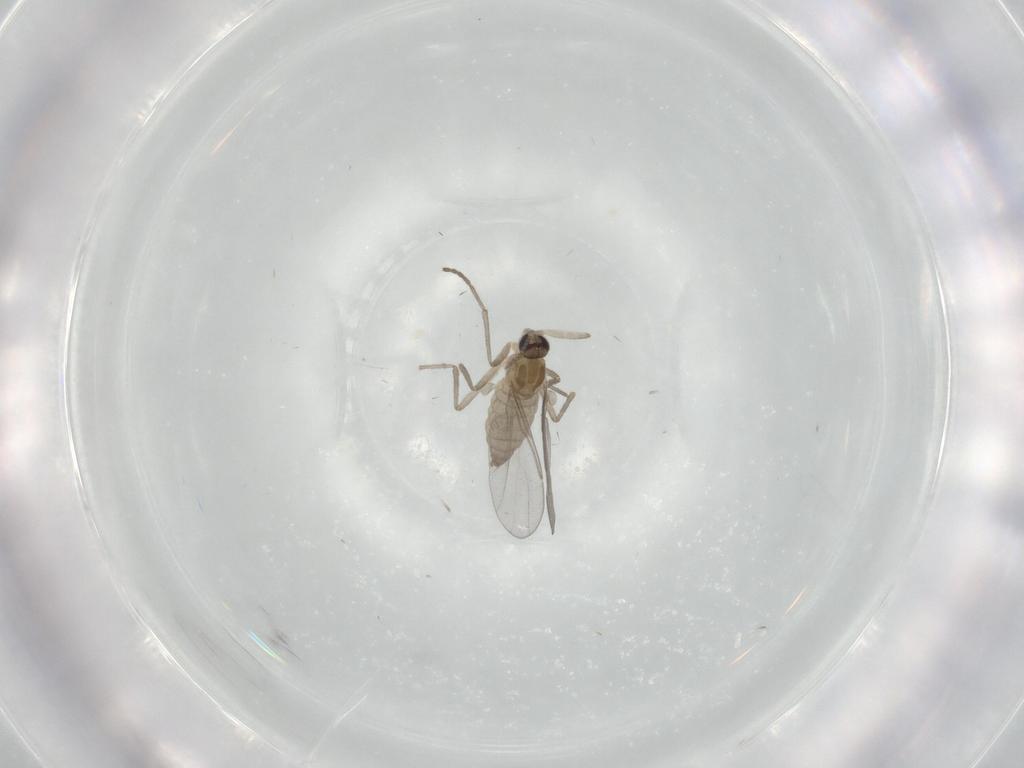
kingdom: Animalia
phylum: Arthropoda
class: Insecta
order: Diptera
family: Cecidomyiidae
